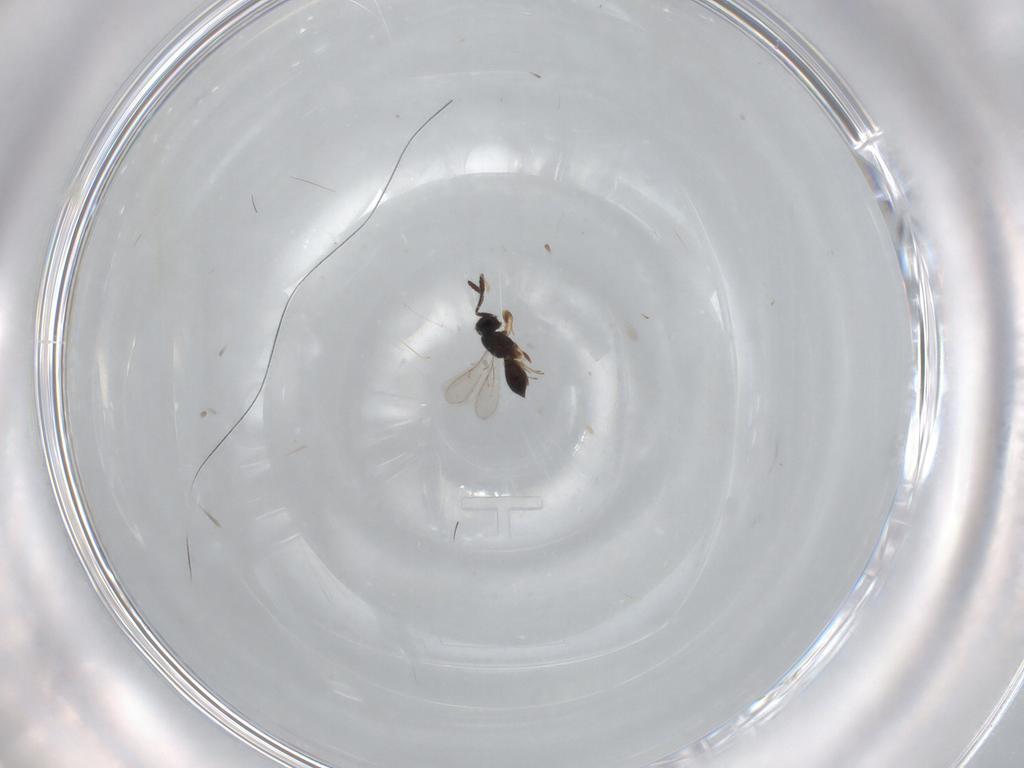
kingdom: Animalia
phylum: Arthropoda
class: Insecta
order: Hymenoptera
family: Scelionidae
